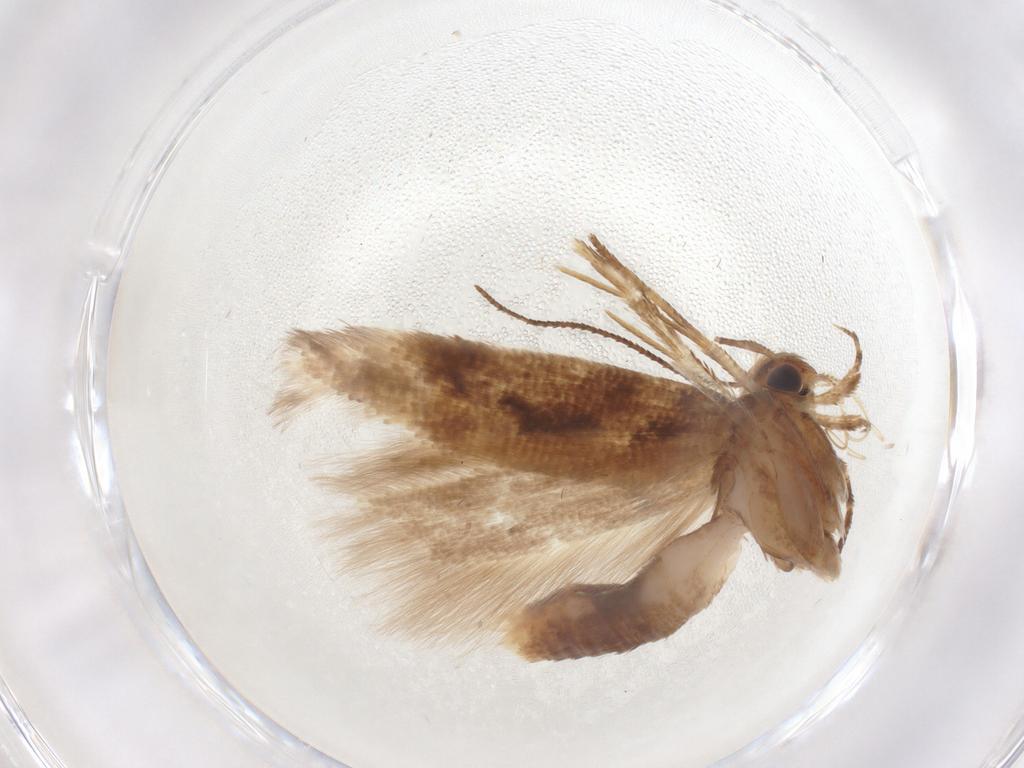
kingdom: Animalia
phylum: Arthropoda
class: Insecta
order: Lepidoptera
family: Gelechiidae
